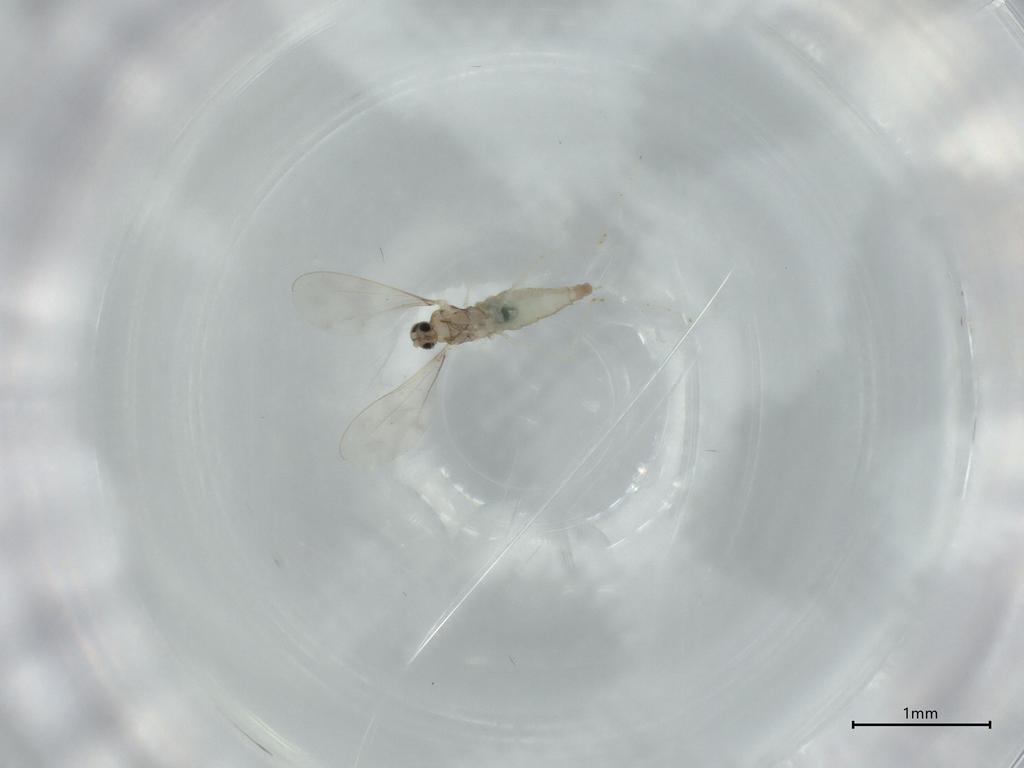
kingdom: Animalia
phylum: Arthropoda
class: Insecta
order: Diptera
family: Cecidomyiidae
